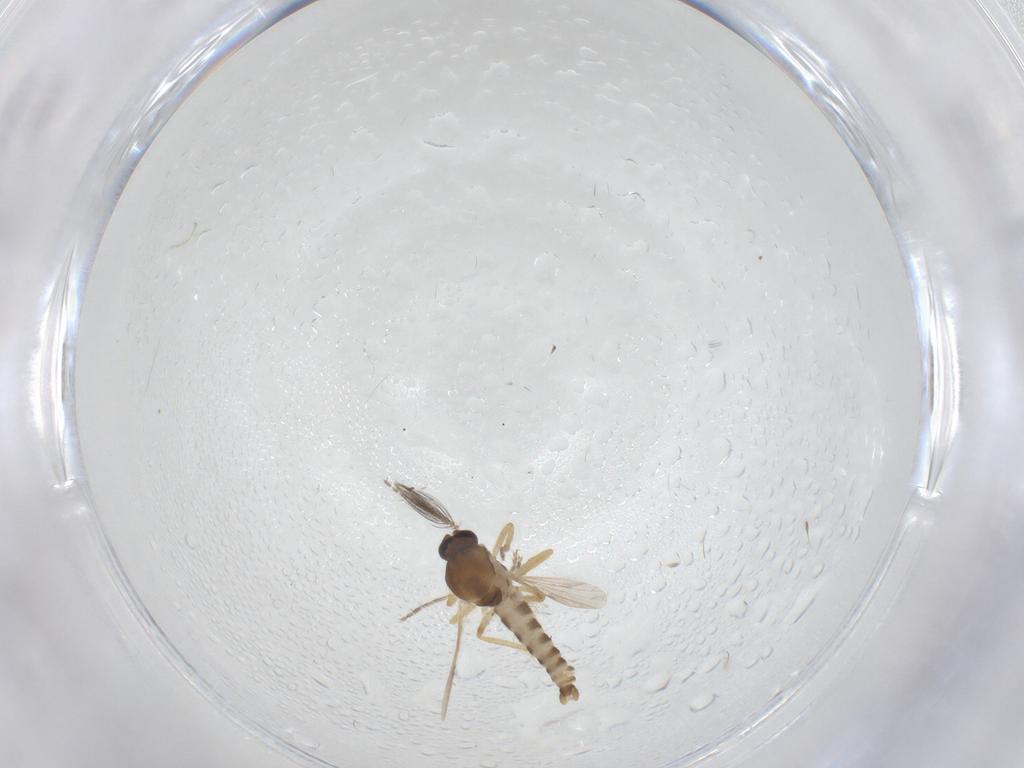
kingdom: Animalia
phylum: Arthropoda
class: Insecta
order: Diptera
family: Ceratopogonidae
